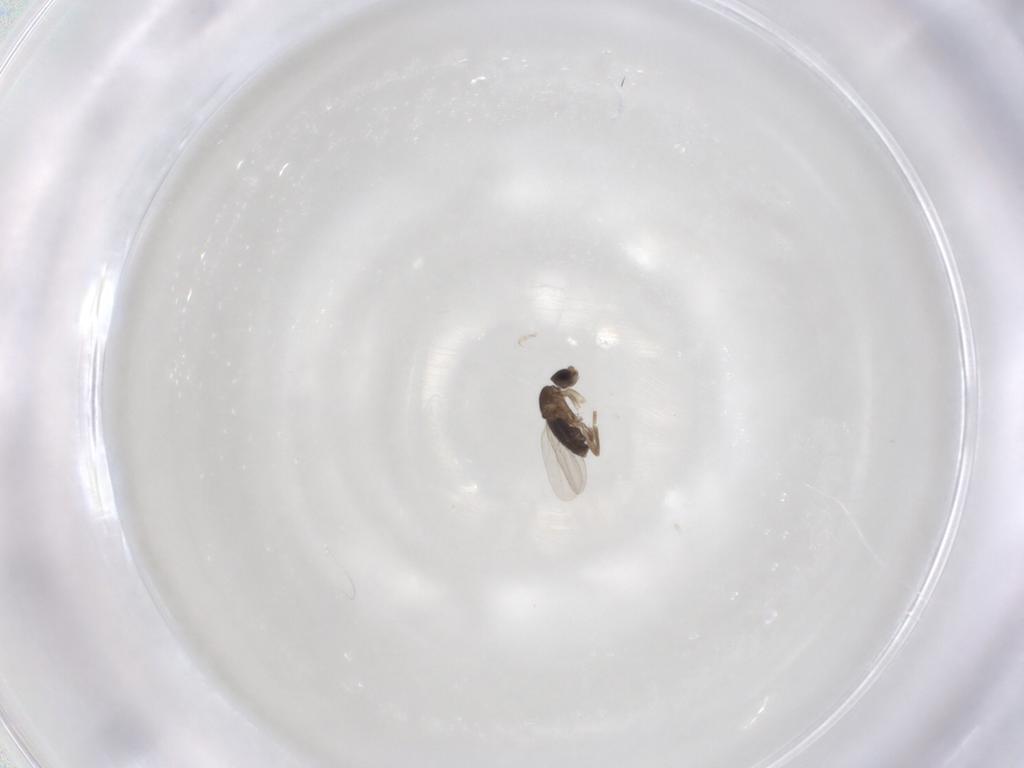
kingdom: Animalia
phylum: Arthropoda
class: Insecta
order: Diptera
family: Phoridae
